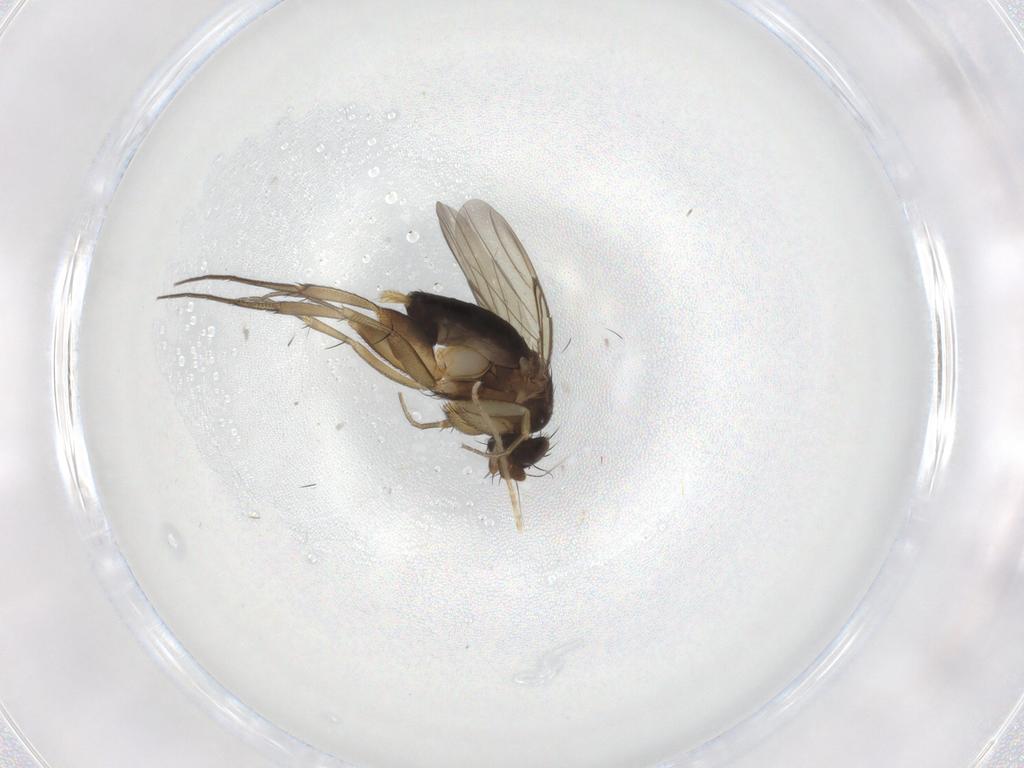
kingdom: Animalia
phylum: Arthropoda
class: Insecta
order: Diptera
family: Phoridae
